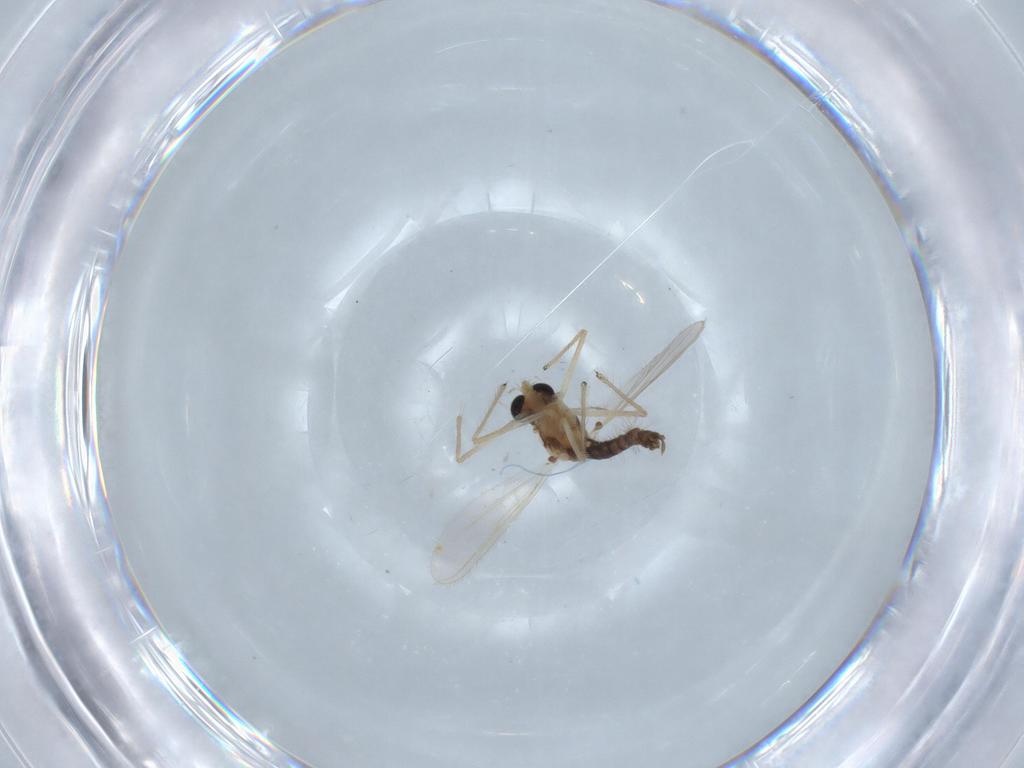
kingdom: Animalia
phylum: Arthropoda
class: Insecta
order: Diptera
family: Chironomidae
